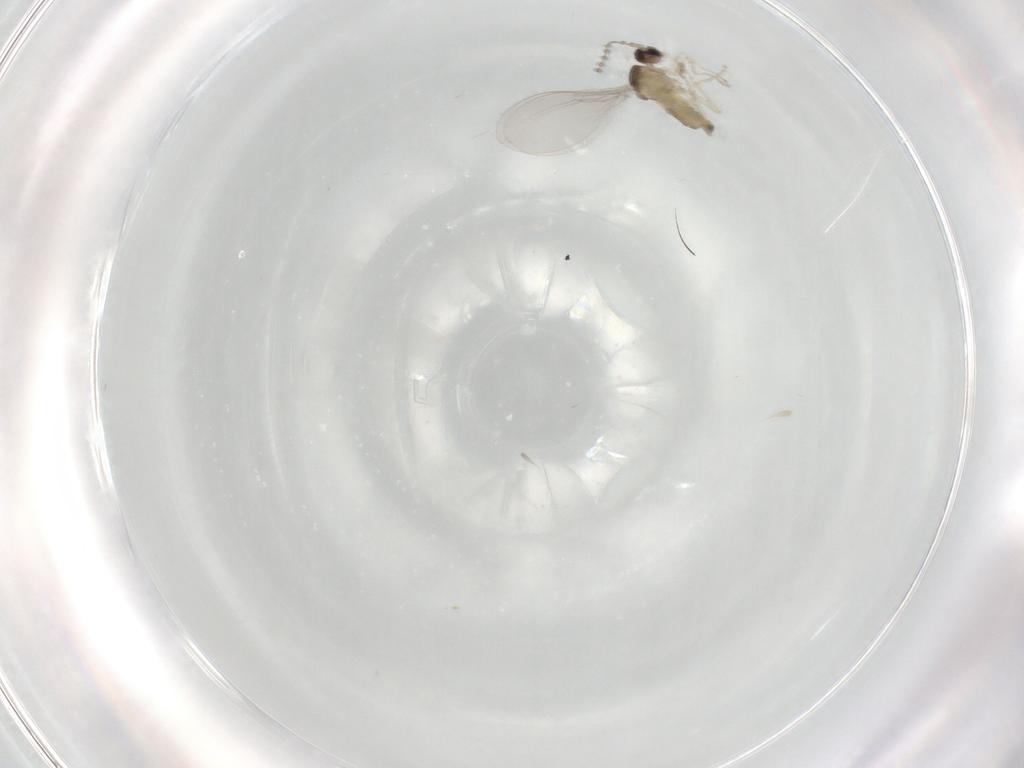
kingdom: Animalia
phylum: Arthropoda
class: Insecta
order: Diptera
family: Cecidomyiidae
